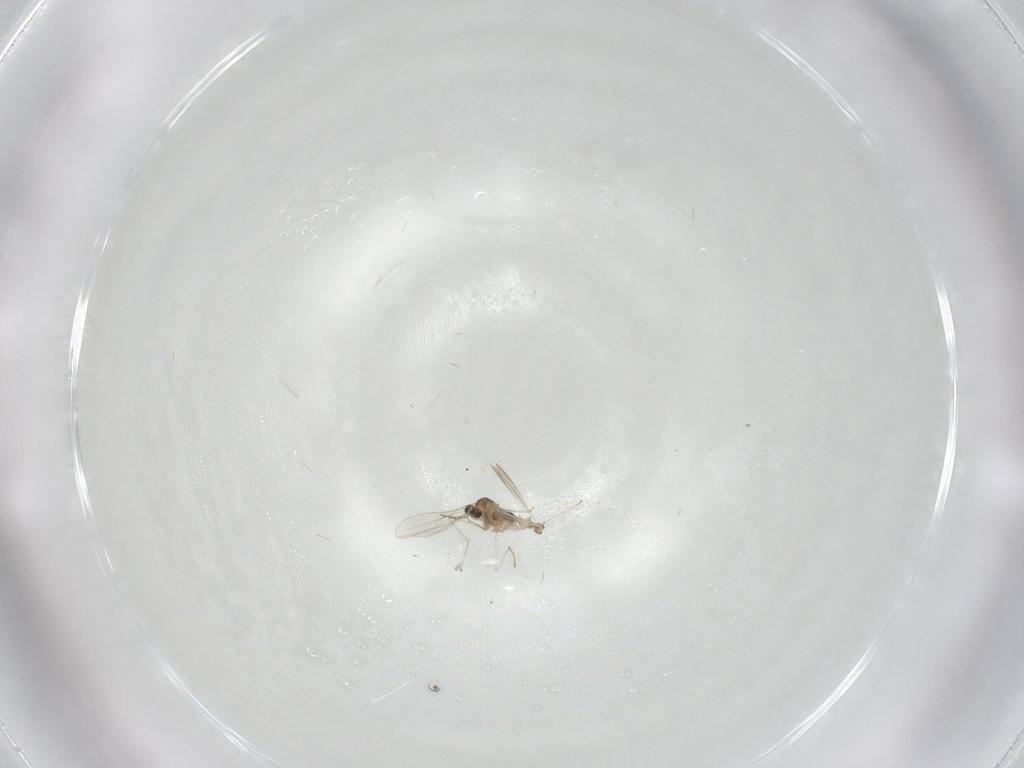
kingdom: Animalia
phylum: Arthropoda
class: Insecta
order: Diptera
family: Cecidomyiidae
